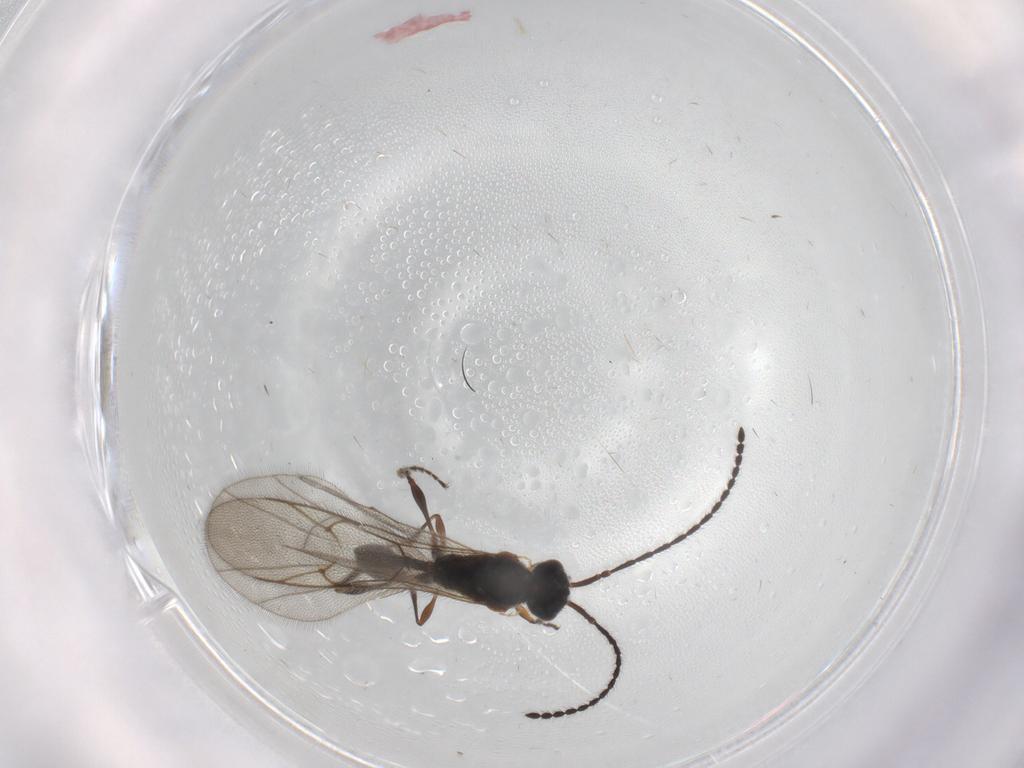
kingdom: Animalia
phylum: Arthropoda
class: Insecta
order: Hymenoptera
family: Diapriidae
